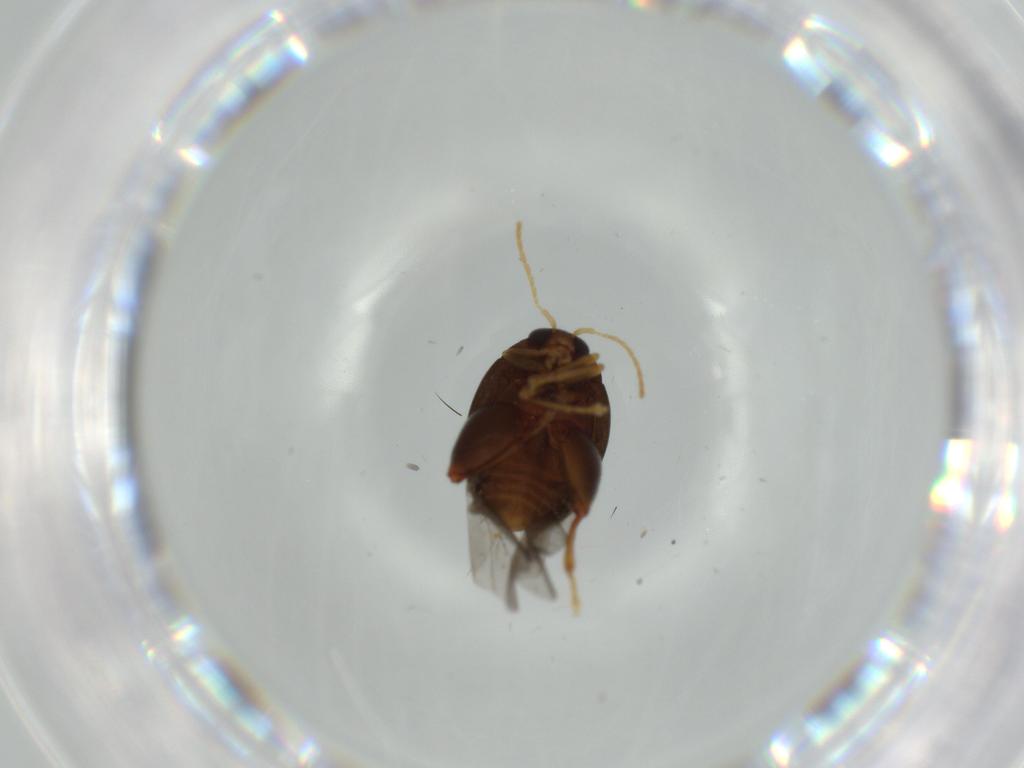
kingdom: Animalia
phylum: Arthropoda
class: Insecta
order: Coleoptera
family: Chrysomelidae
